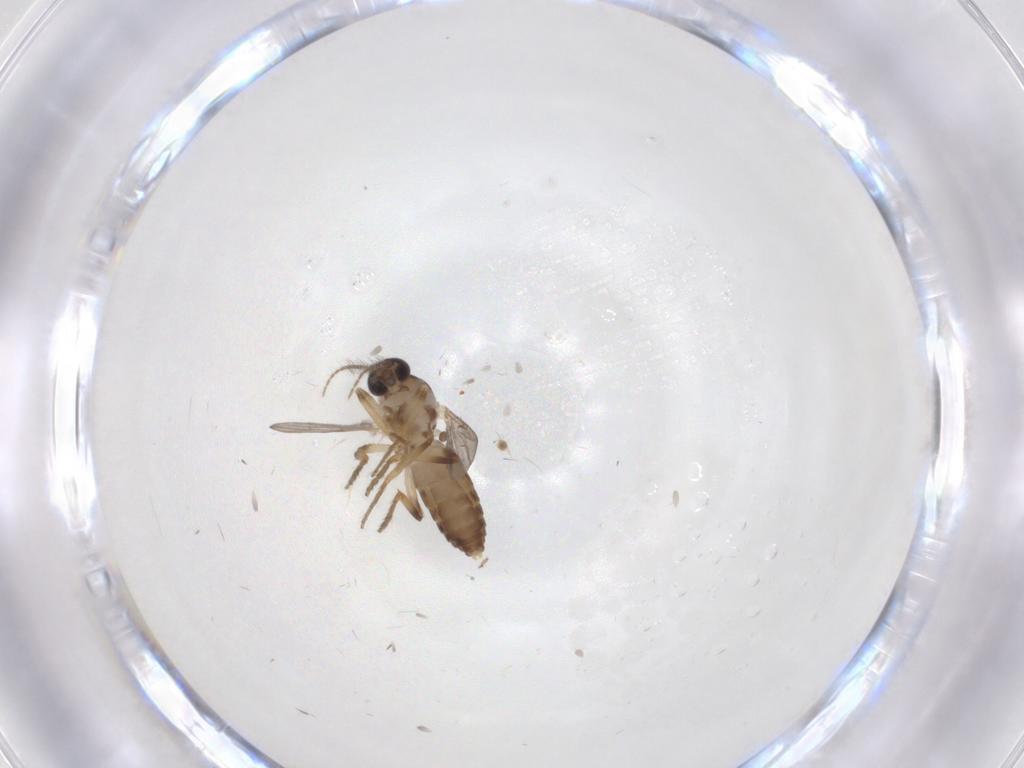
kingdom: Animalia
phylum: Arthropoda
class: Insecta
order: Diptera
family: Ceratopogonidae
